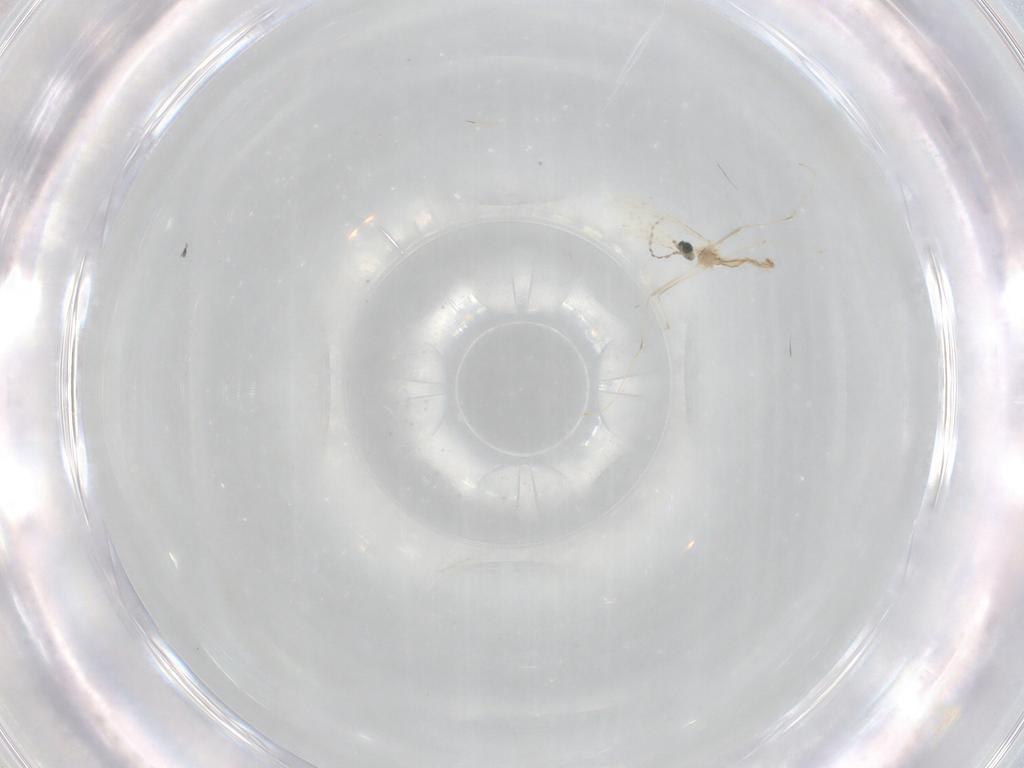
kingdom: Animalia
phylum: Arthropoda
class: Insecta
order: Diptera
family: Cecidomyiidae
